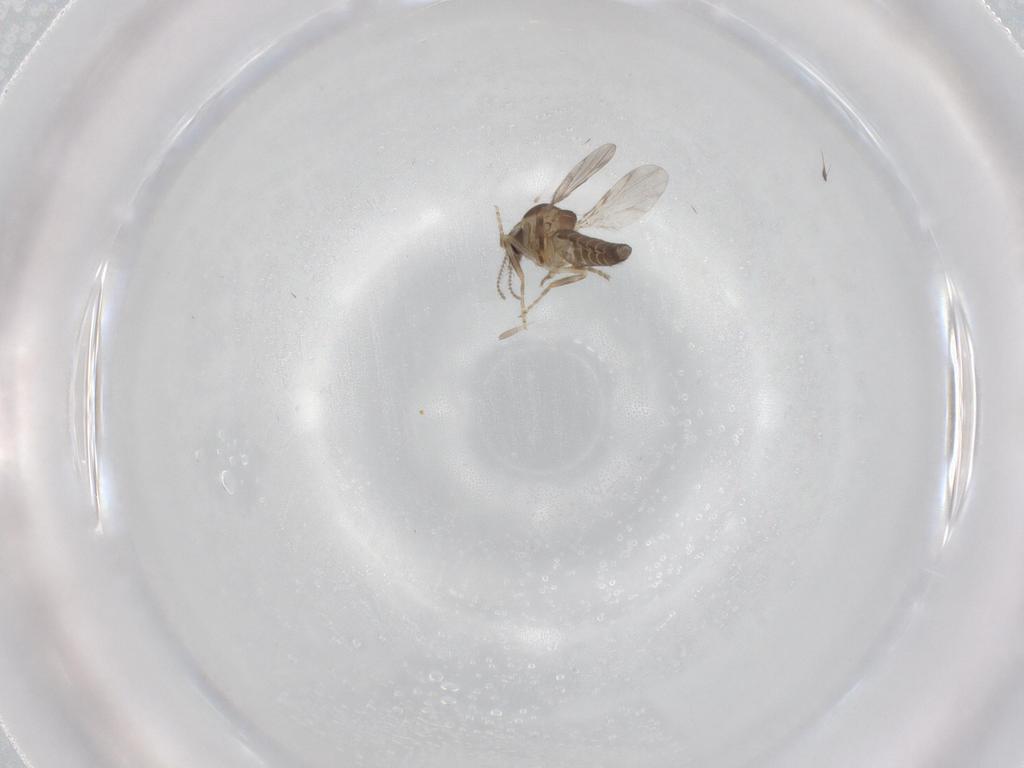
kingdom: Animalia
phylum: Arthropoda
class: Insecta
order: Diptera
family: Ceratopogonidae
